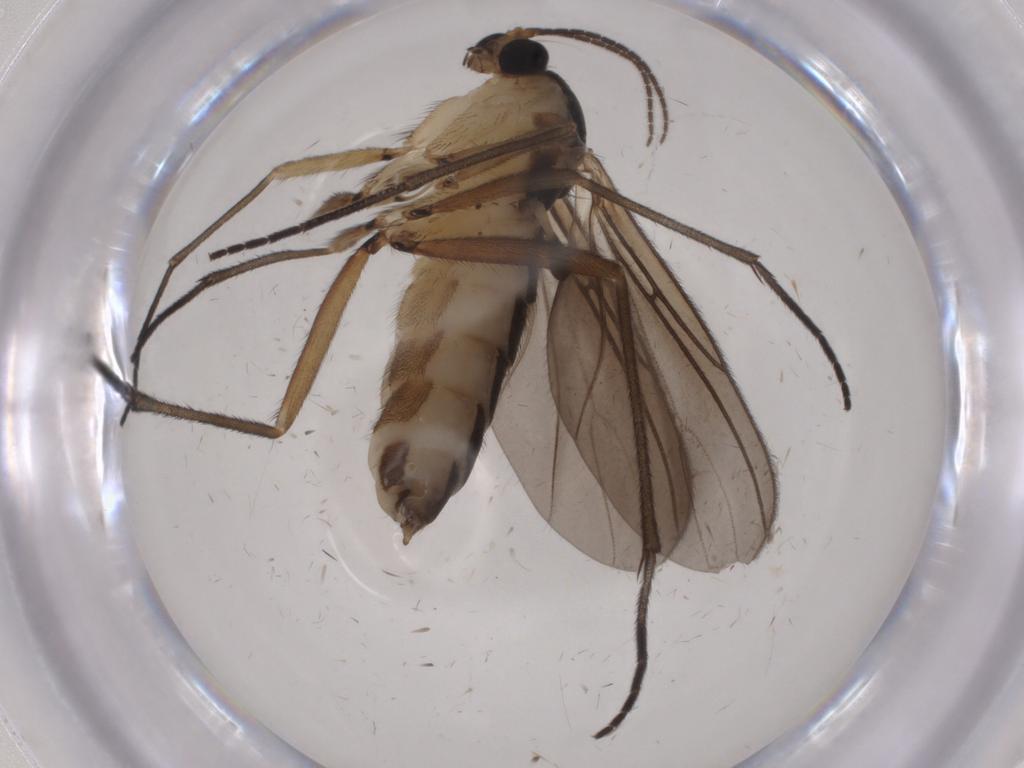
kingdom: Animalia
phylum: Arthropoda
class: Insecta
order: Diptera
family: Sciaridae
